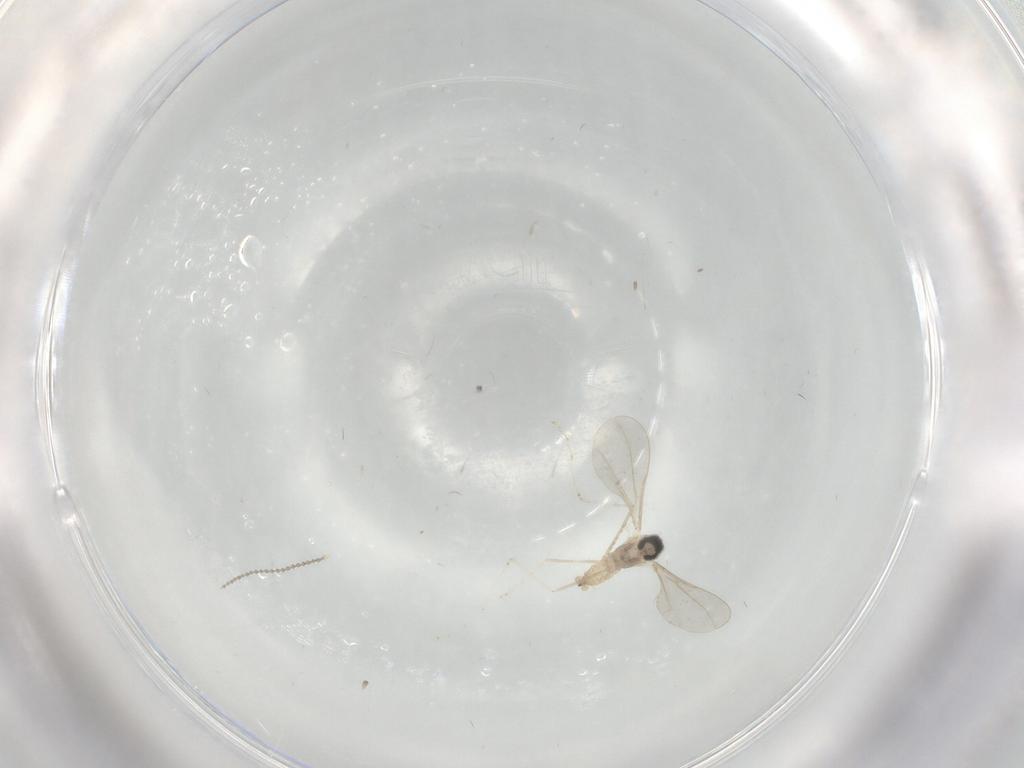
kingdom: Animalia
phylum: Arthropoda
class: Insecta
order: Diptera
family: Cecidomyiidae
